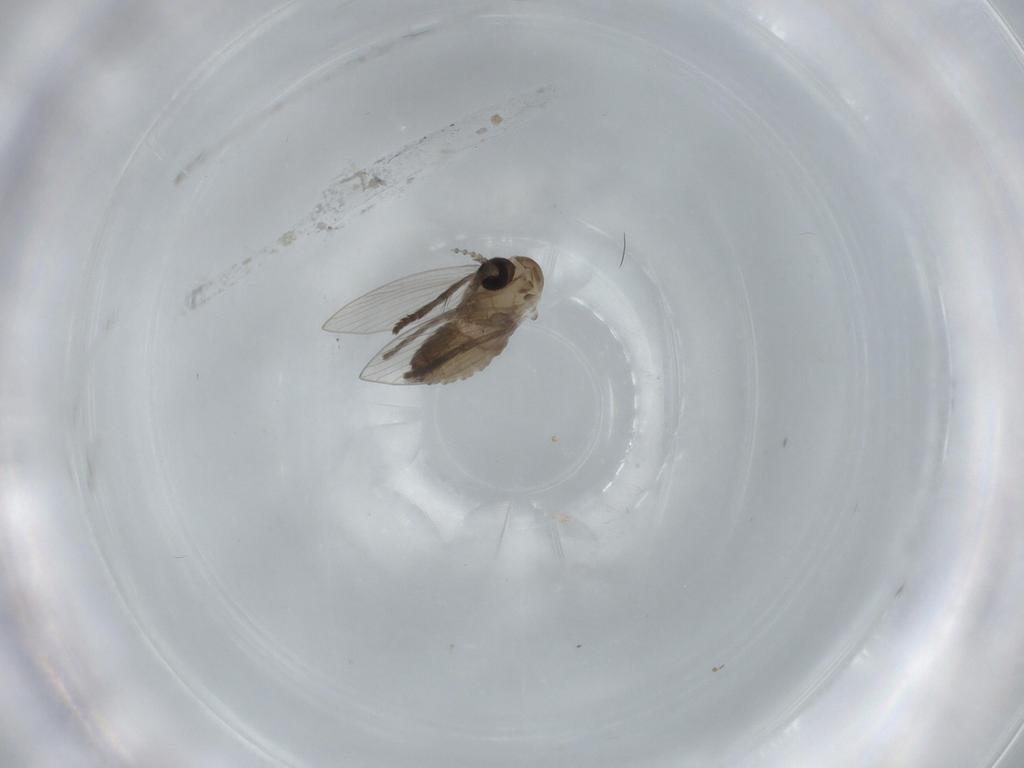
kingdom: Animalia
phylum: Arthropoda
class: Insecta
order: Diptera
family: Psychodidae
